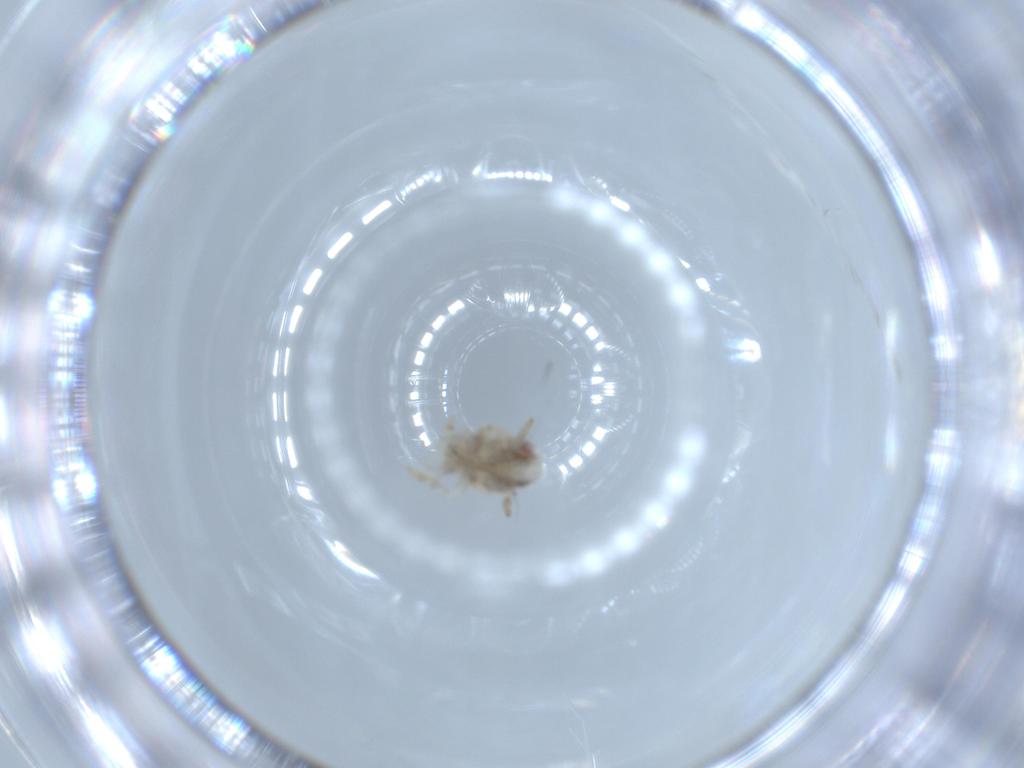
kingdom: Animalia
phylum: Arthropoda
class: Insecta
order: Hemiptera
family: Acanaloniidae
